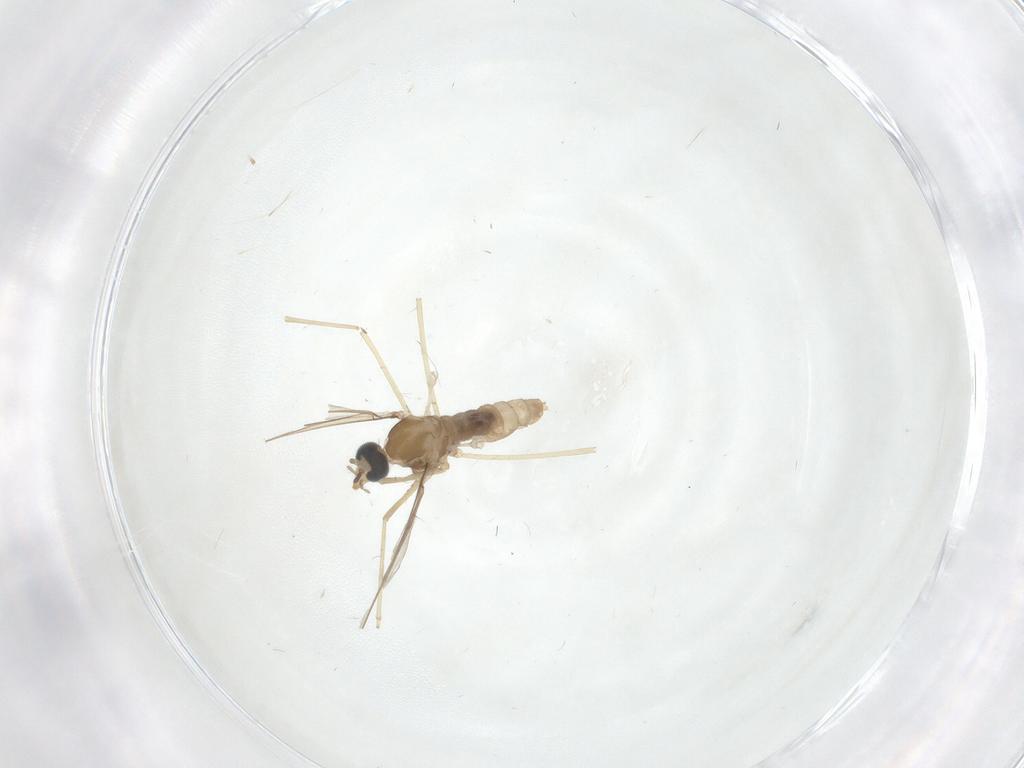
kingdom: Animalia
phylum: Arthropoda
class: Insecta
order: Diptera
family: Cecidomyiidae
